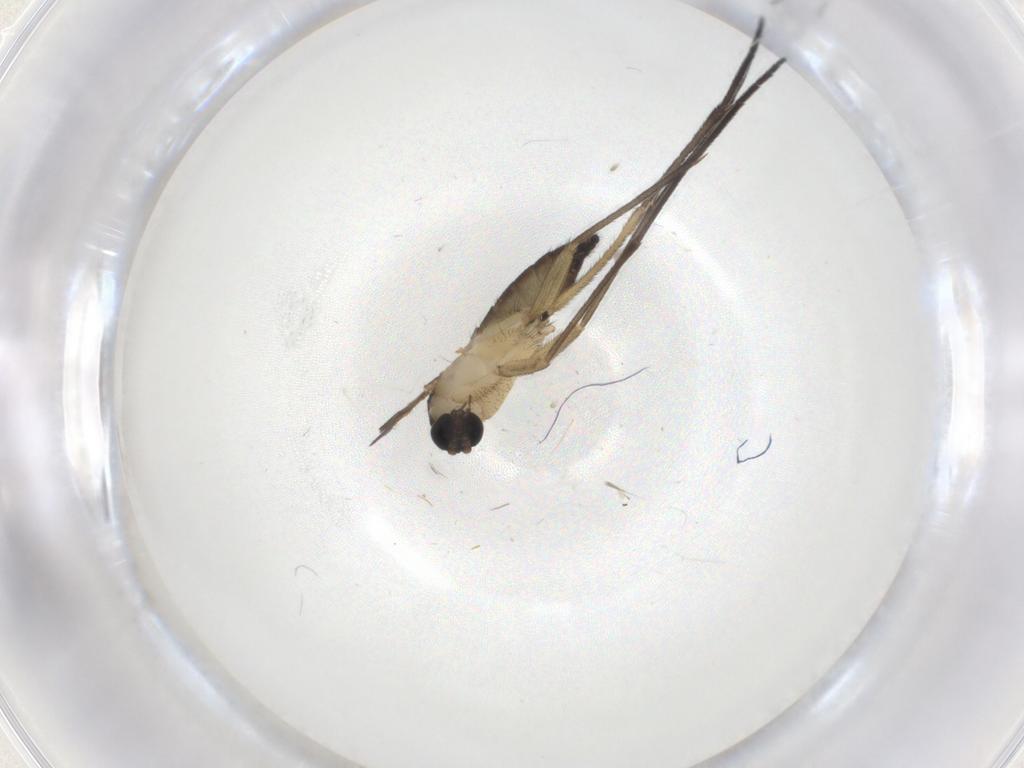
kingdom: Animalia
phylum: Arthropoda
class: Insecta
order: Diptera
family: Sciaridae
